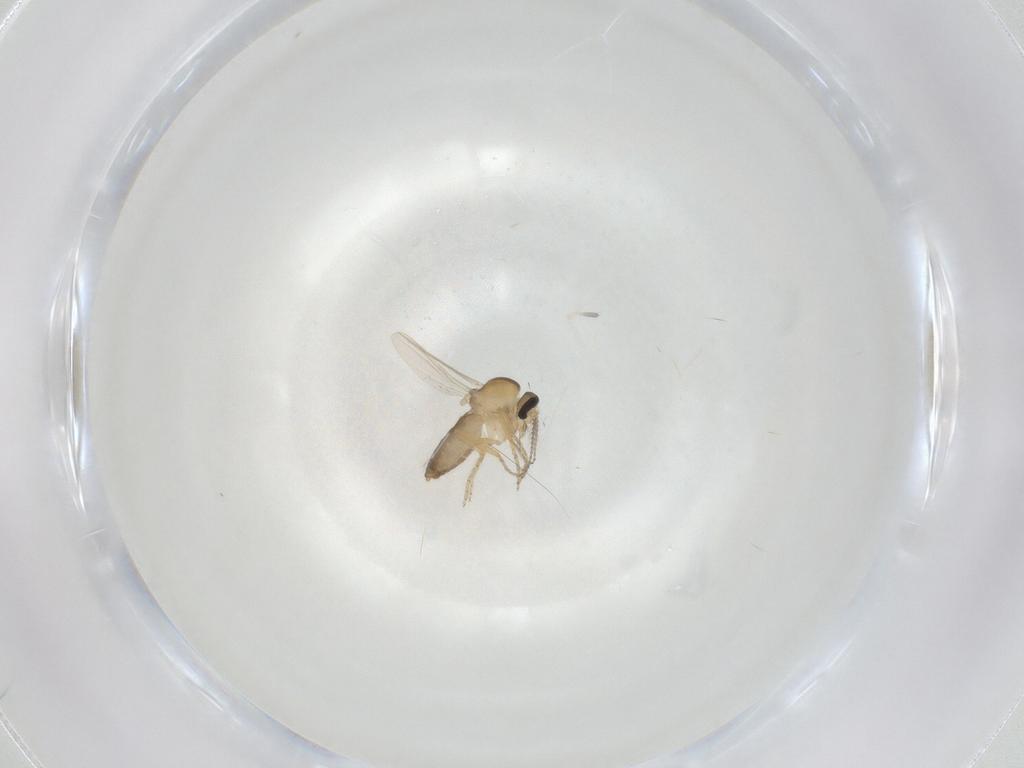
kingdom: Animalia
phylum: Arthropoda
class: Insecta
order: Diptera
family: Ceratopogonidae
